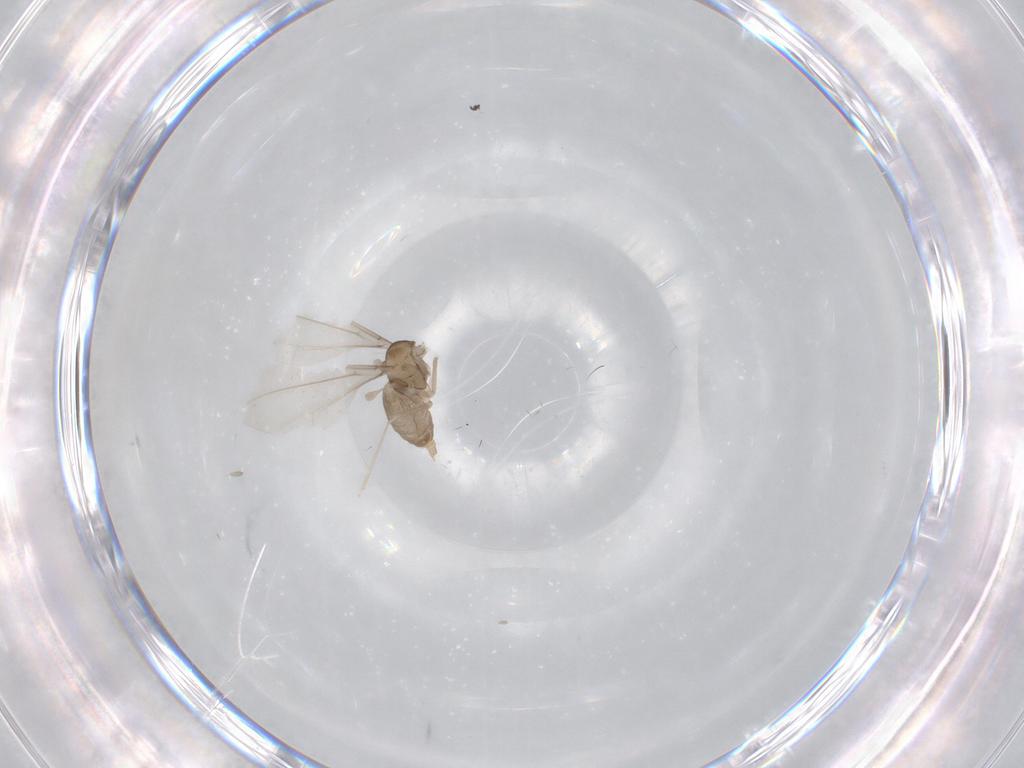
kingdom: Animalia
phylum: Arthropoda
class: Insecta
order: Diptera
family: Cecidomyiidae
